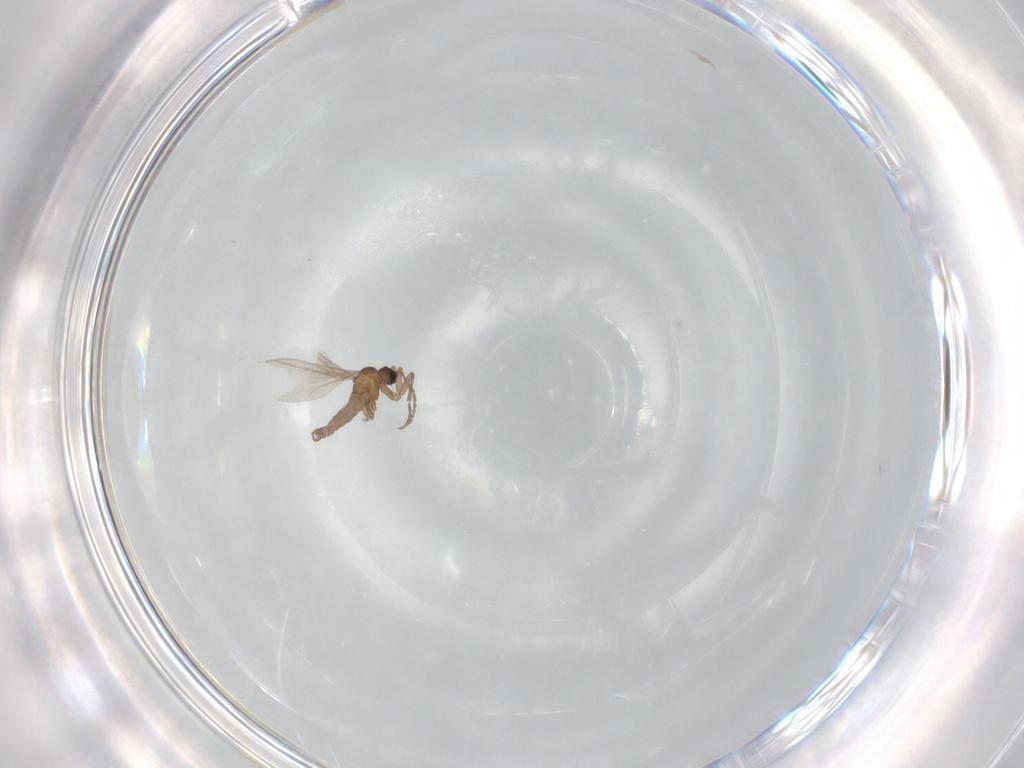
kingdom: Animalia
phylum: Arthropoda
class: Insecta
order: Diptera
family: Sciaridae
